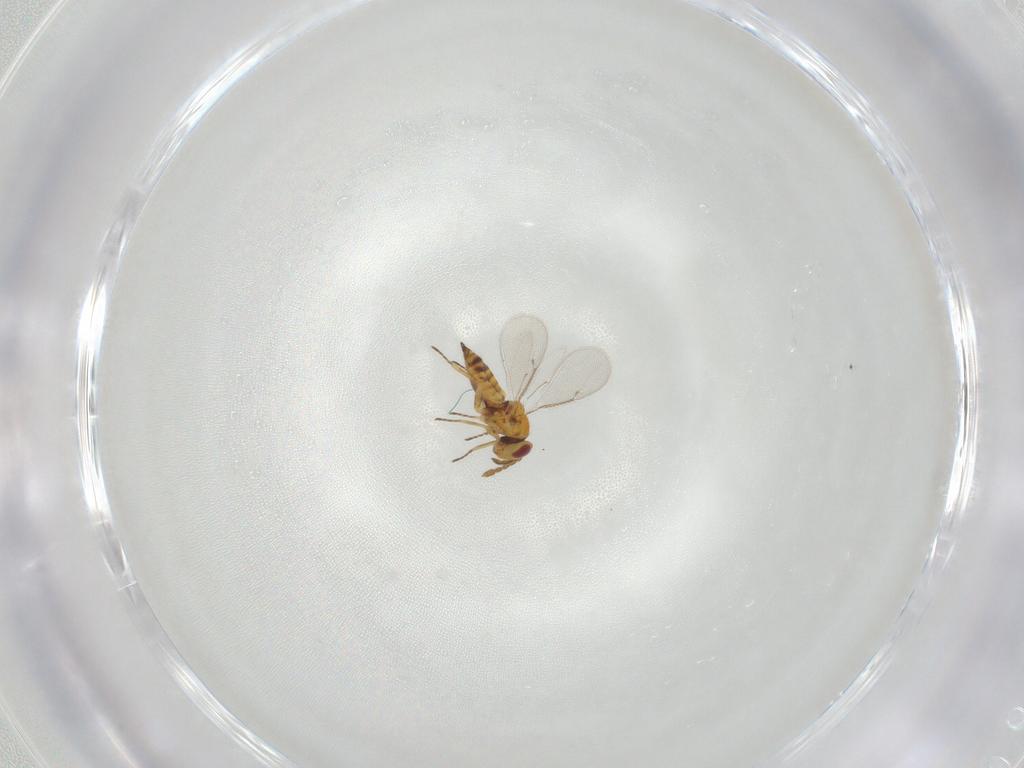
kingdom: Animalia
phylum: Arthropoda
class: Insecta
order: Hymenoptera
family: Eulophidae
